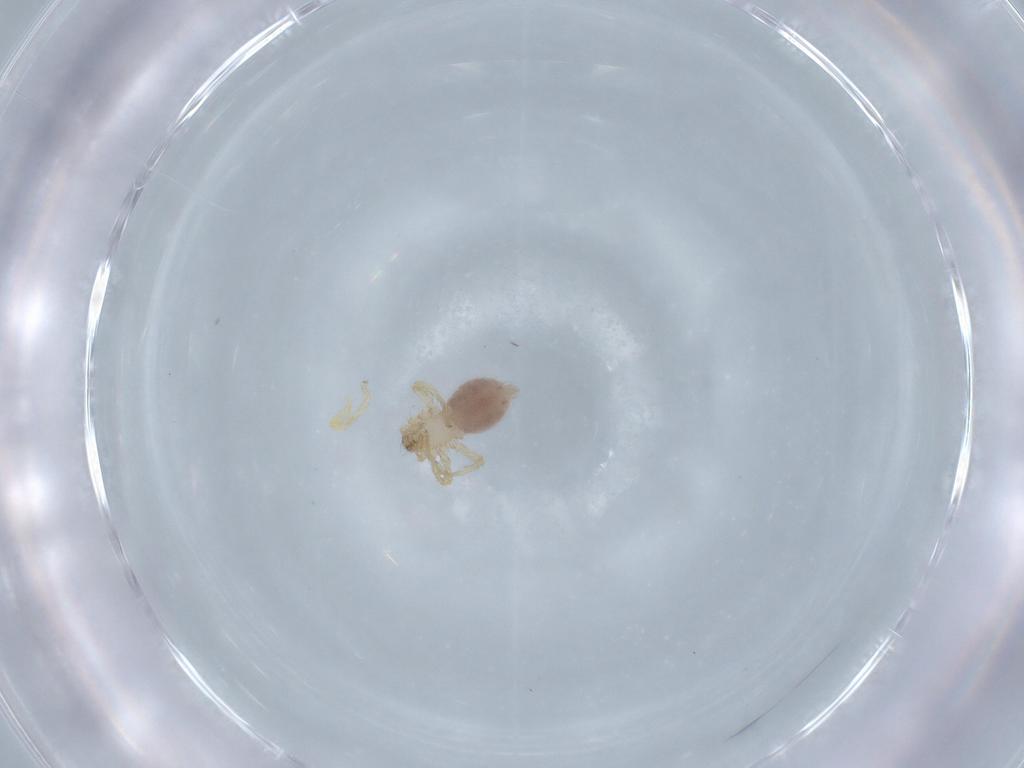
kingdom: Animalia
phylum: Arthropoda
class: Arachnida
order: Araneae
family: Oonopidae
